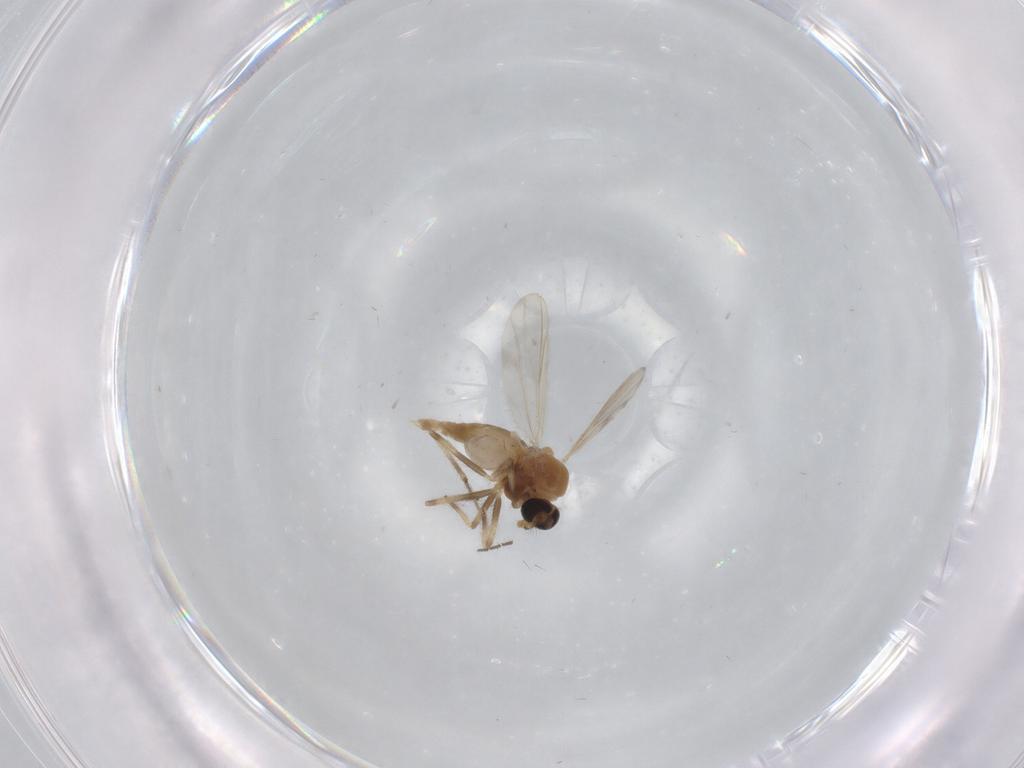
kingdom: Animalia
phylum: Arthropoda
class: Insecta
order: Diptera
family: Chironomidae
